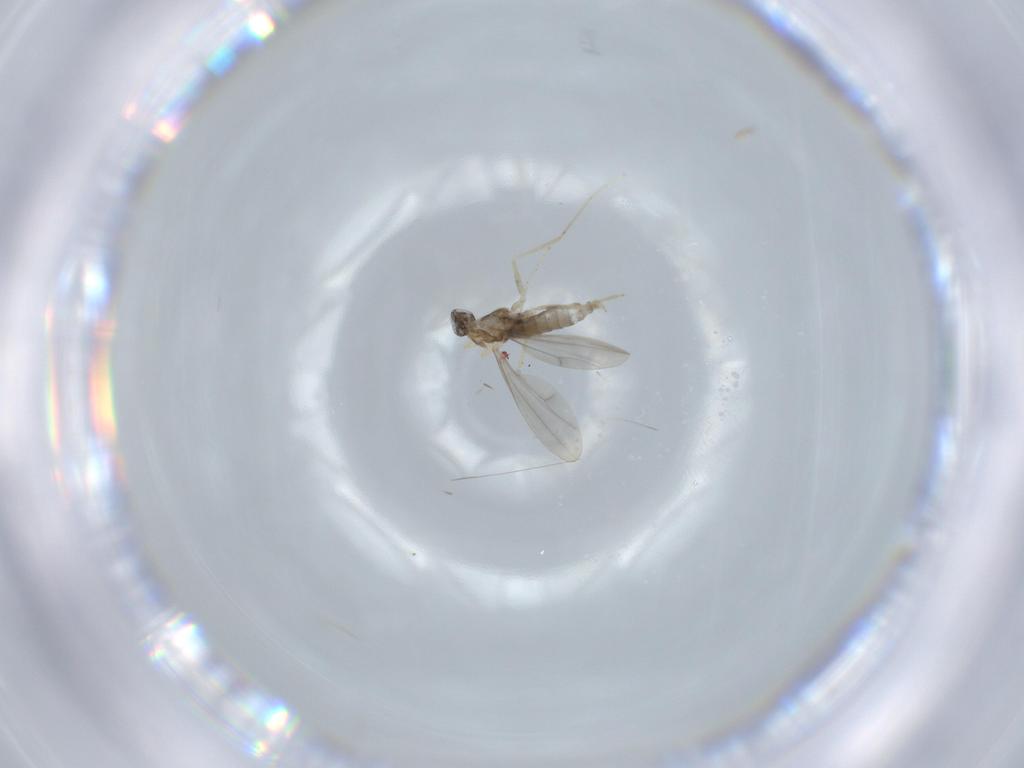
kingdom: Animalia
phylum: Arthropoda
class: Insecta
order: Diptera
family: Cecidomyiidae
